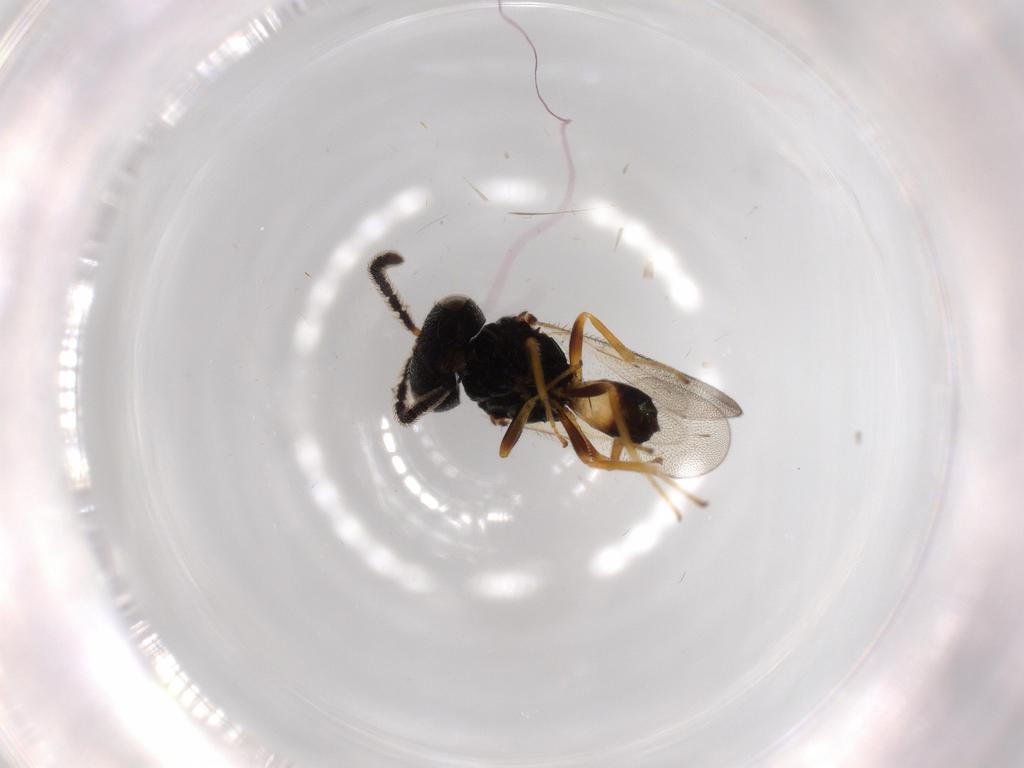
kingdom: Animalia
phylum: Arthropoda
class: Insecta
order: Hymenoptera
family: Pteromalidae
